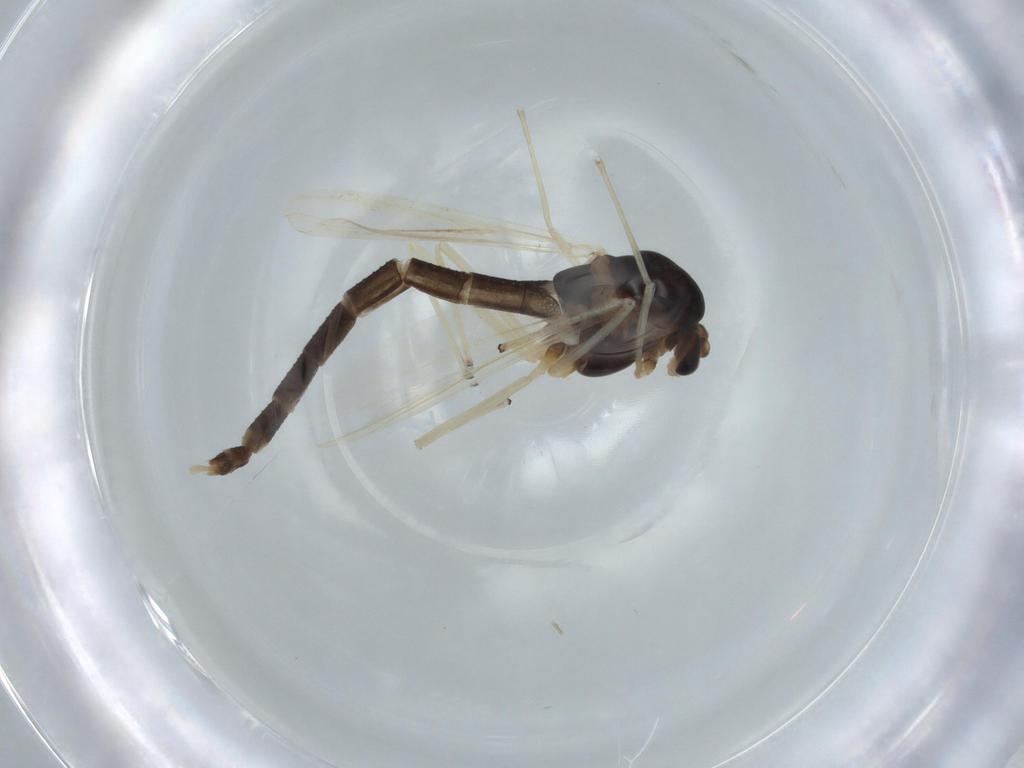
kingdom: Animalia
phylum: Arthropoda
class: Insecta
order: Diptera
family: Chironomidae
